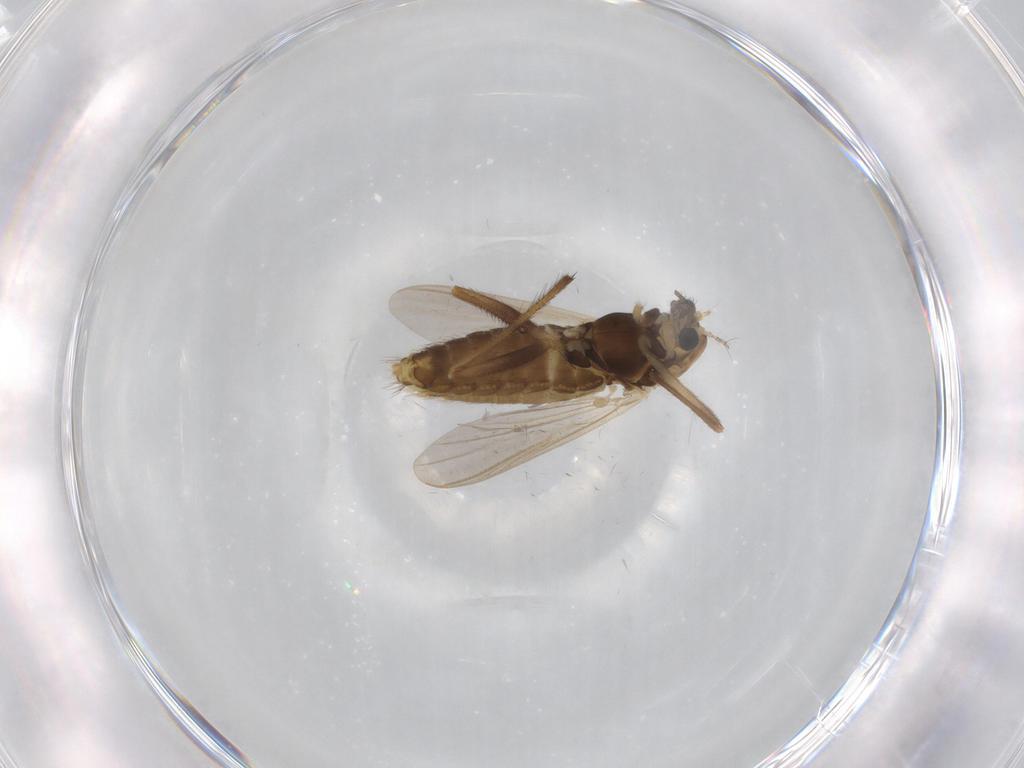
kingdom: Animalia
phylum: Arthropoda
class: Insecta
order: Diptera
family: Chironomidae
